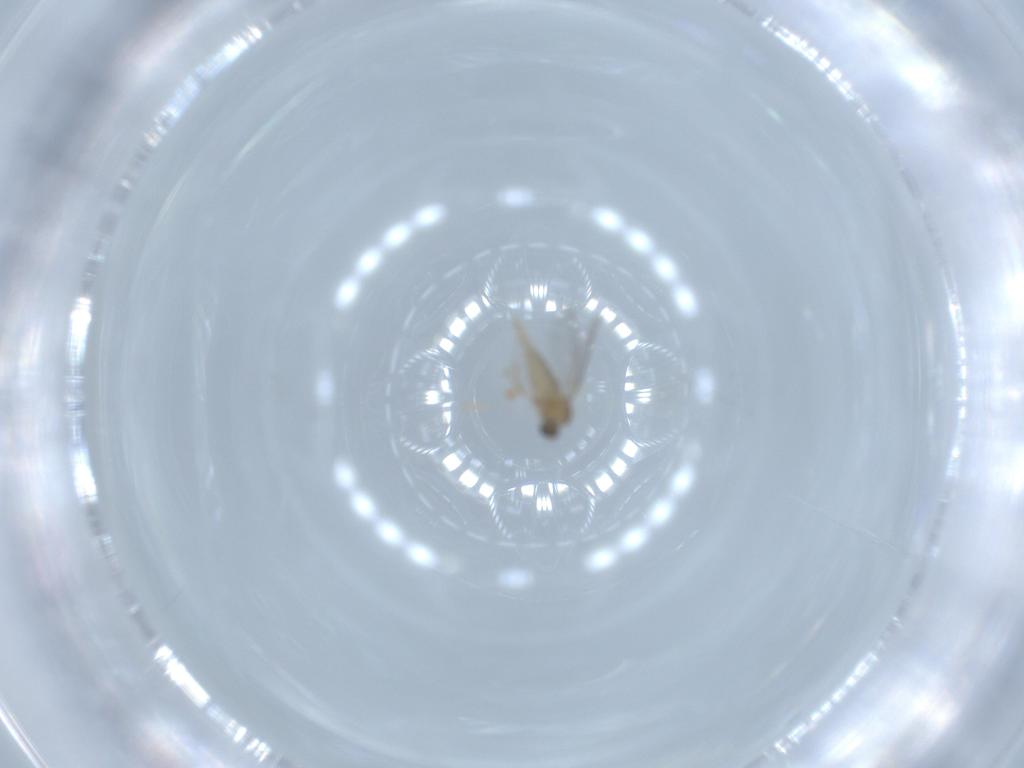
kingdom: Animalia
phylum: Arthropoda
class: Insecta
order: Diptera
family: Cecidomyiidae
